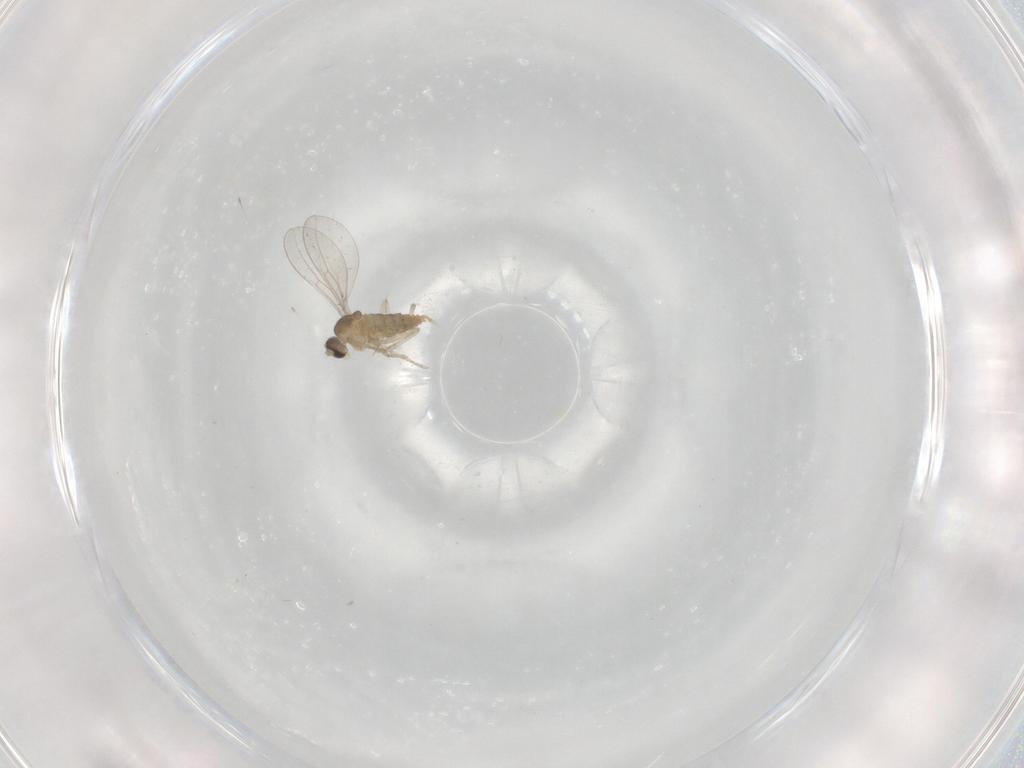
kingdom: Animalia
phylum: Arthropoda
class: Insecta
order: Diptera
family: Cecidomyiidae
